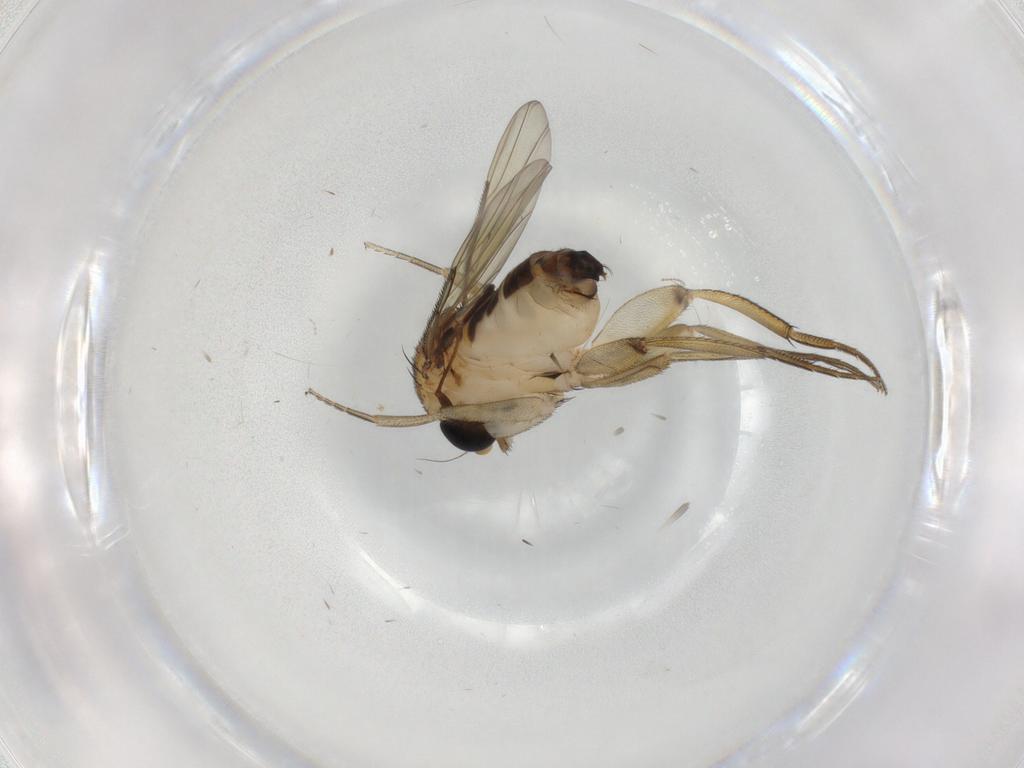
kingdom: Animalia
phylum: Arthropoda
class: Insecta
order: Diptera
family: Phoridae
